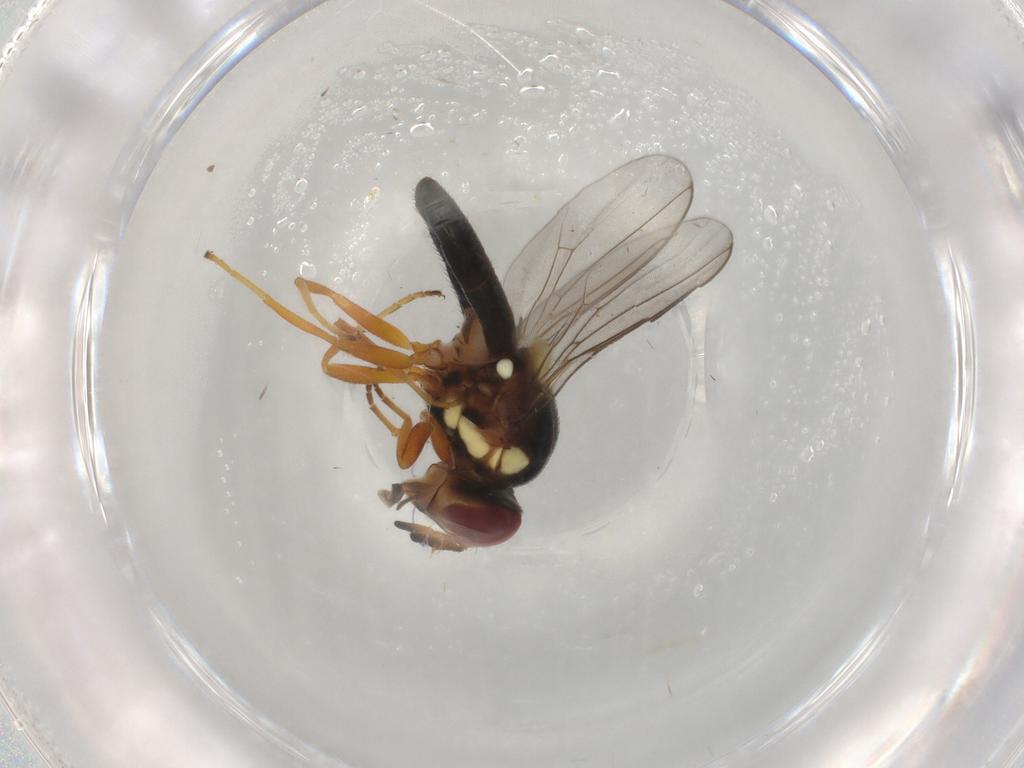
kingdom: Animalia
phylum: Arthropoda
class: Insecta
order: Diptera
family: Chloropidae
